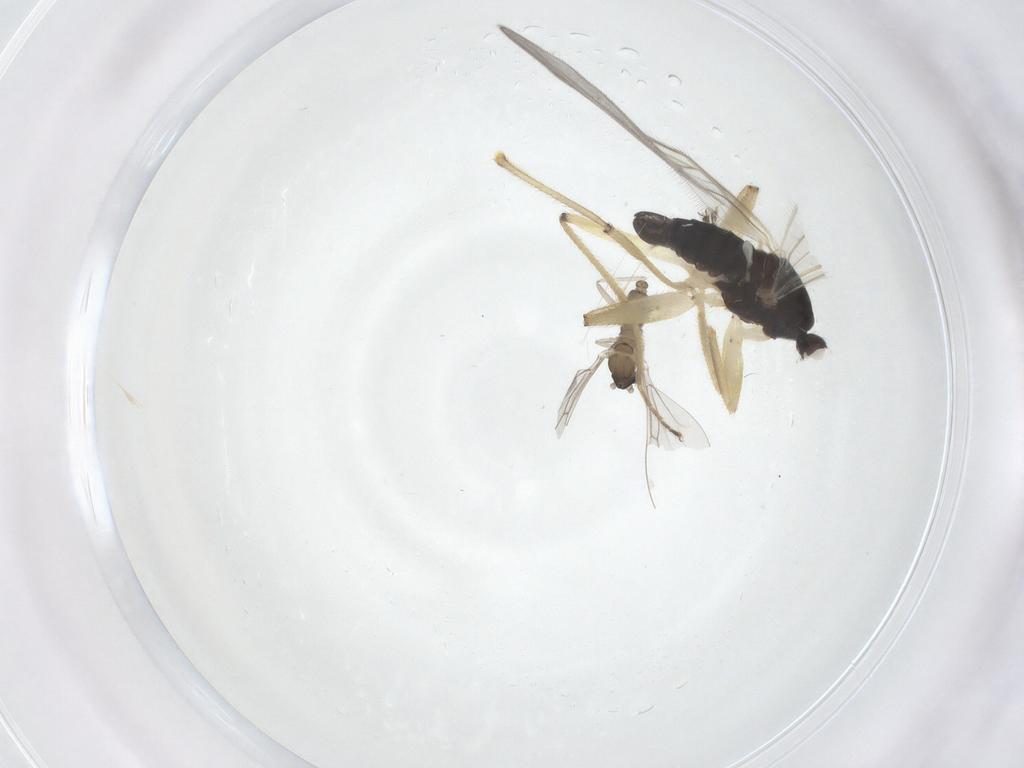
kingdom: Animalia
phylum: Arthropoda
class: Insecta
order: Diptera
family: Hybotidae
